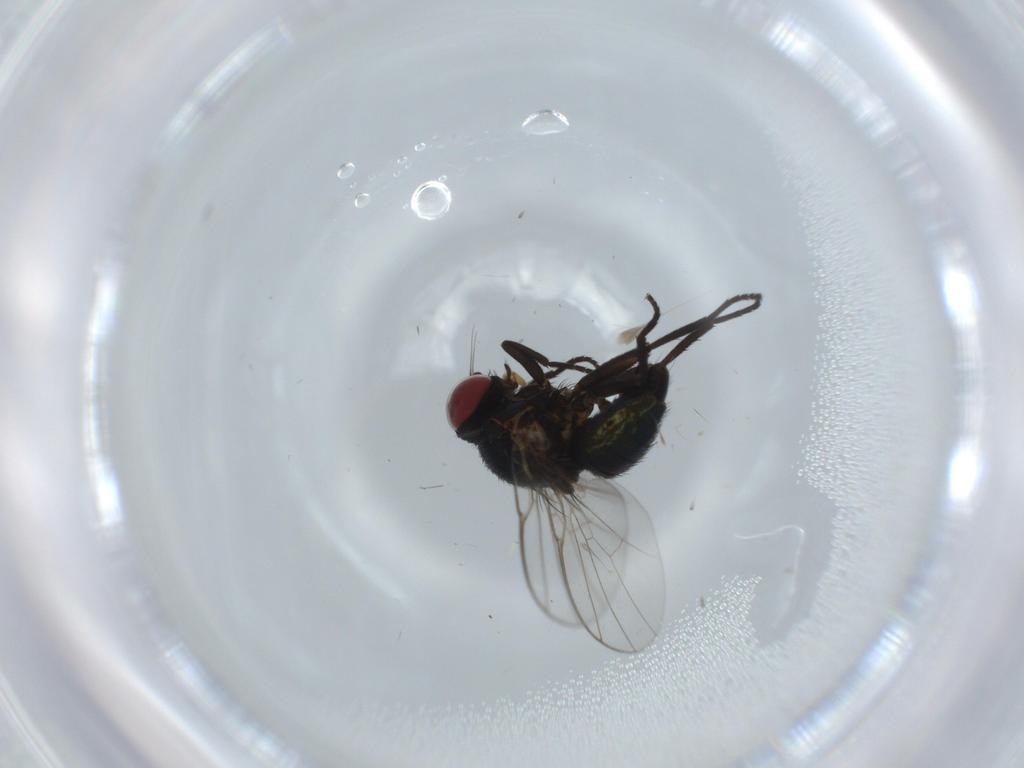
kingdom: Animalia
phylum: Arthropoda
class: Insecta
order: Diptera
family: Agromyzidae
